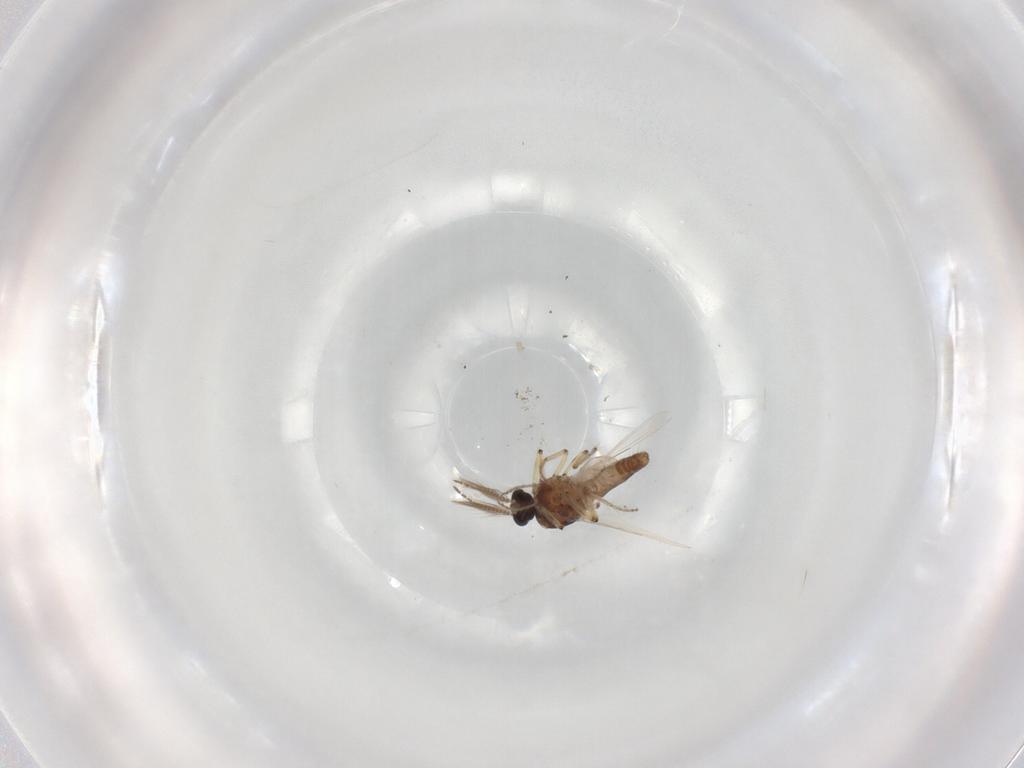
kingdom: Animalia
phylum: Arthropoda
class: Insecta
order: Diptera
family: Ceratopogonidae
